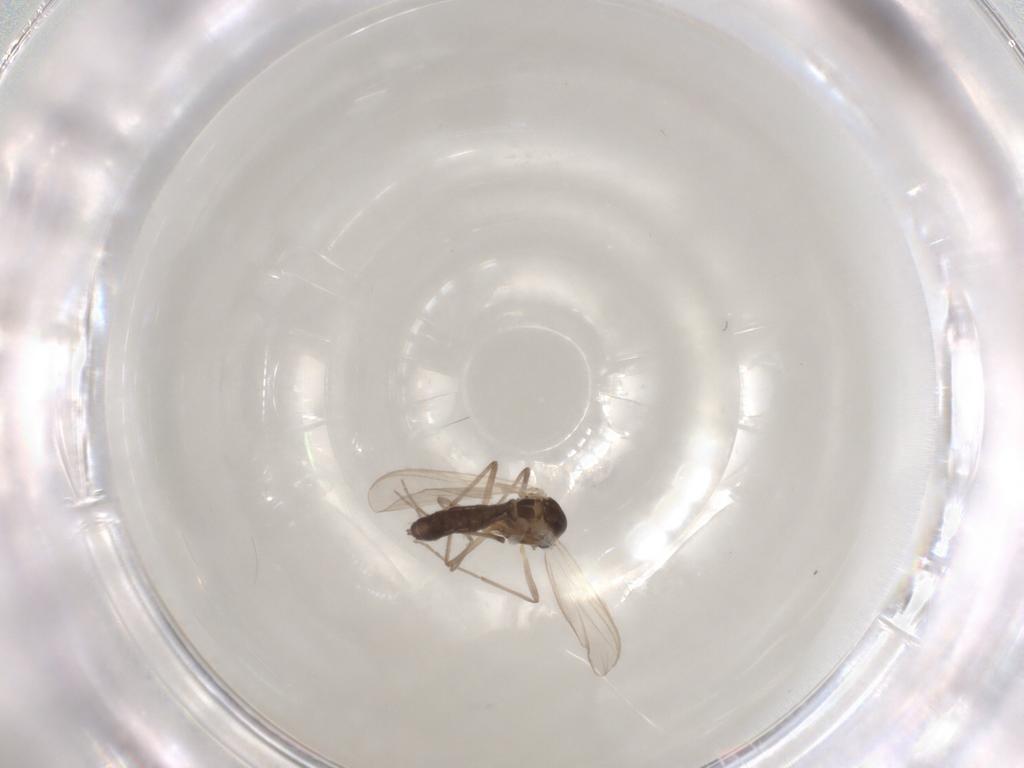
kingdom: Animalia
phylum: Arthropoda
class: Insecta
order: Diptera
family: Chironomidae
